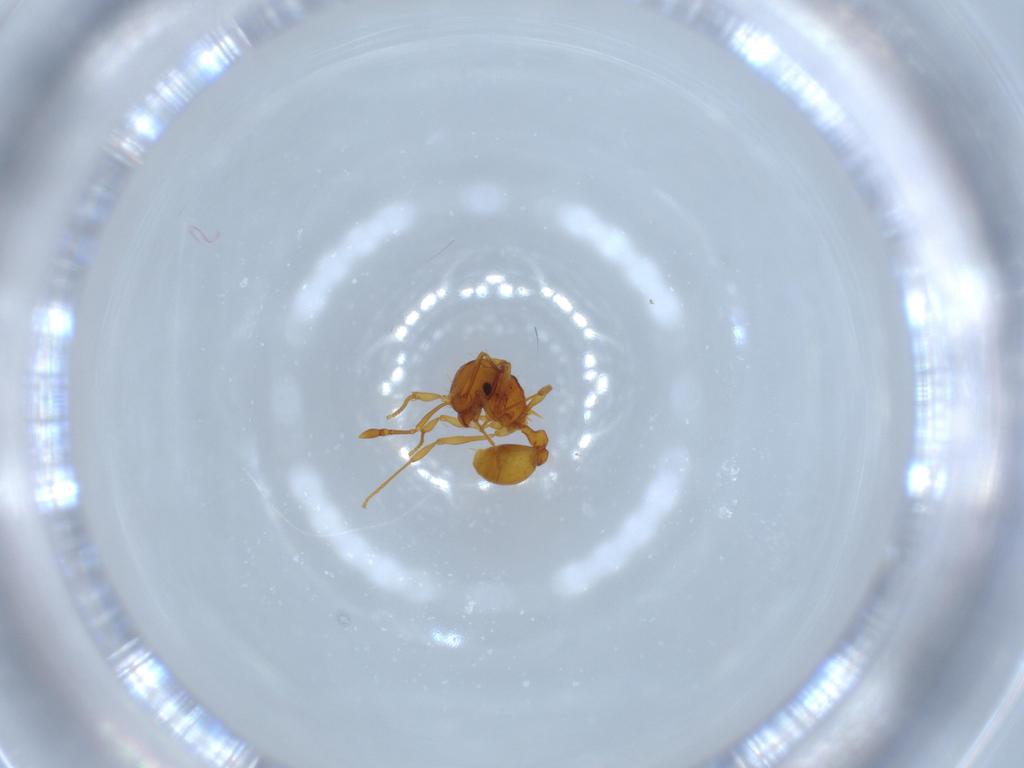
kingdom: Animalia
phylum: Arthropoda
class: Insecta
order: Hymenoptera
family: Formicidae
